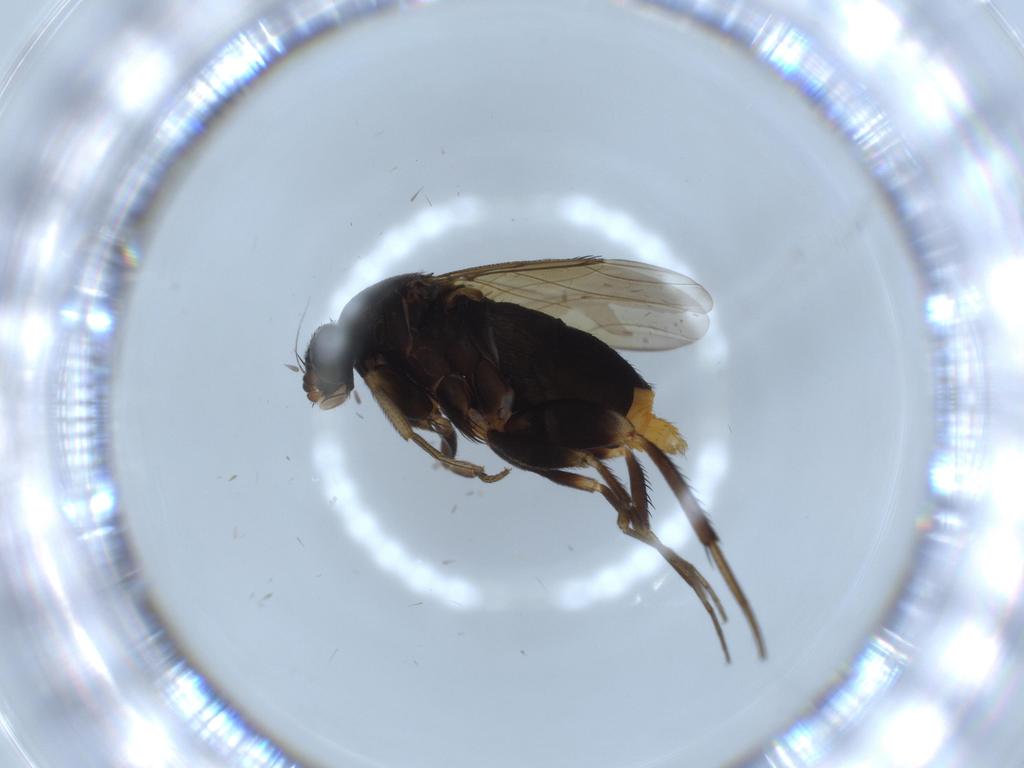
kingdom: Animalia
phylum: Arthropoda
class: Insecta
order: Diptera
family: Phoridae
